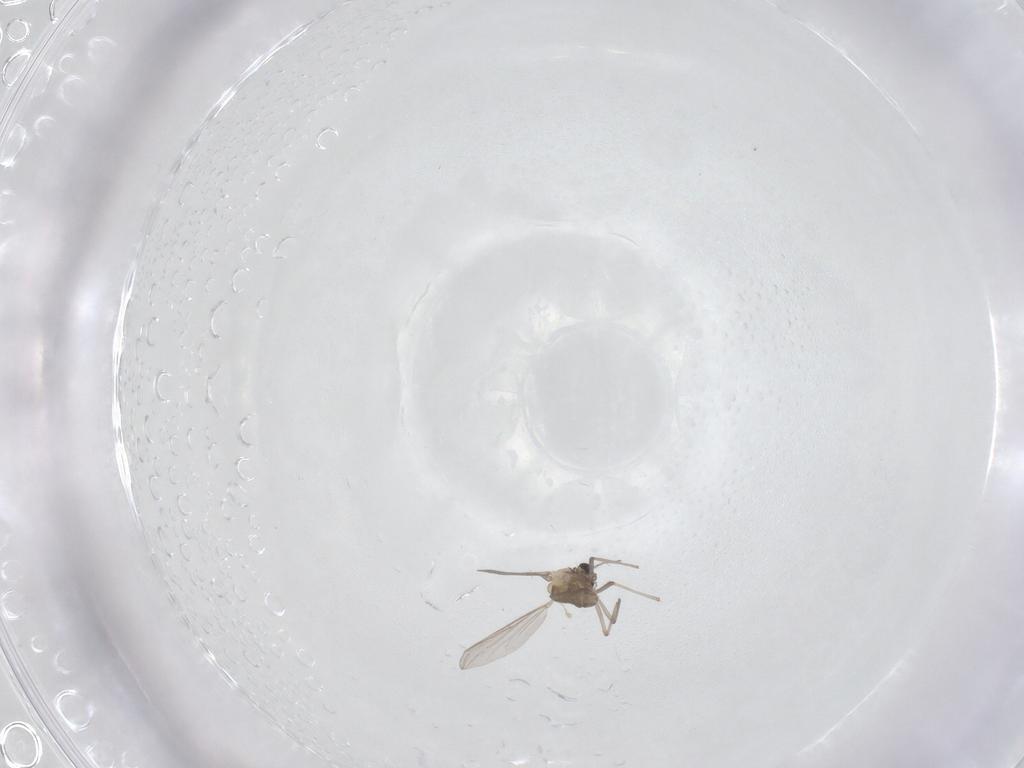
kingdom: Animalia
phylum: Arthropoda
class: Insecta
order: Diptera
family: Chironomidae
